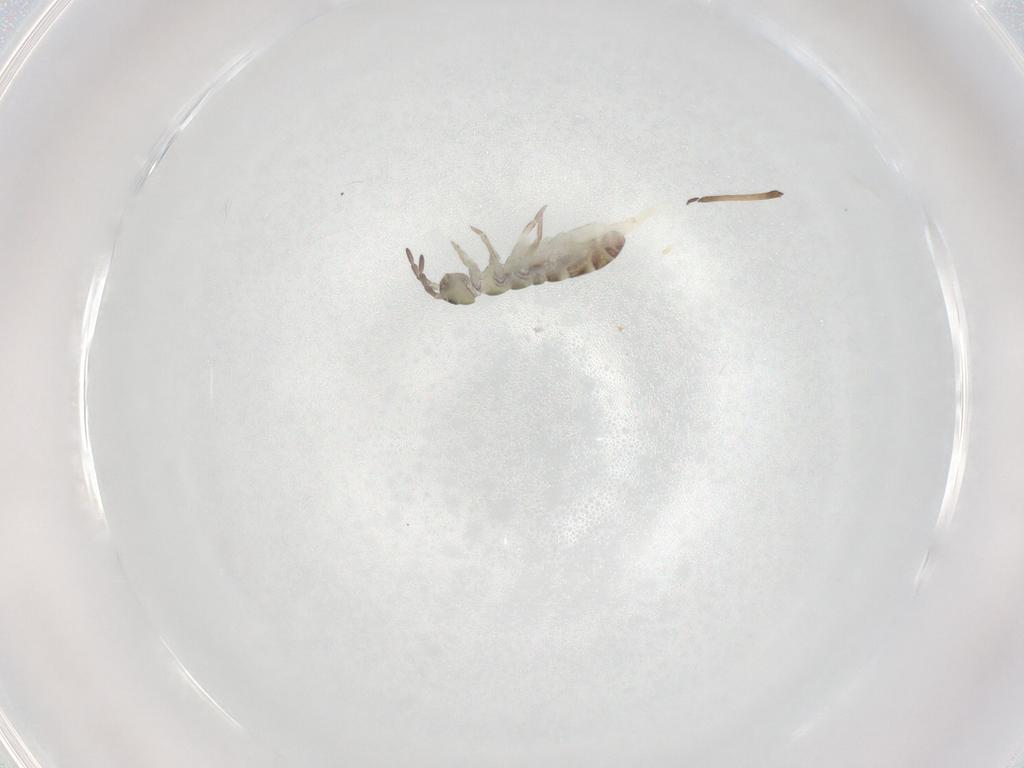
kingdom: Animalia
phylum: Arthropoda
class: Collembola
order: Entomobryomorpha
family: Isotomidae
